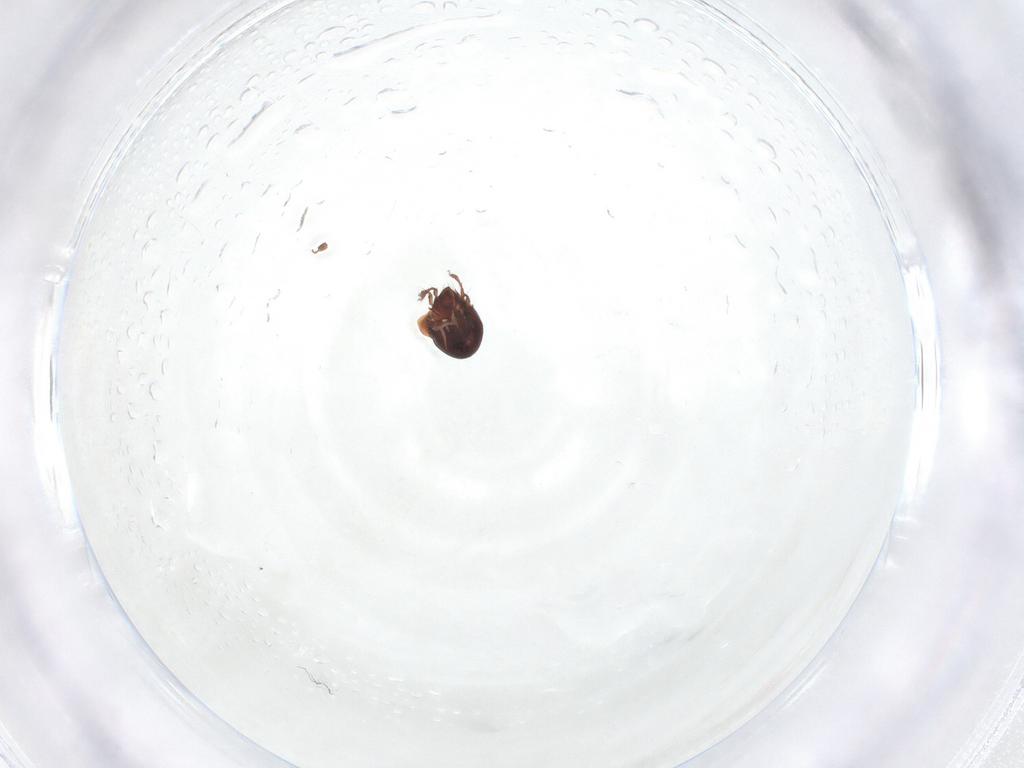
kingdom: Animalia
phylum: Arthropoda
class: Arachnida
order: Sarcoptiformes
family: Ceratozetidae
